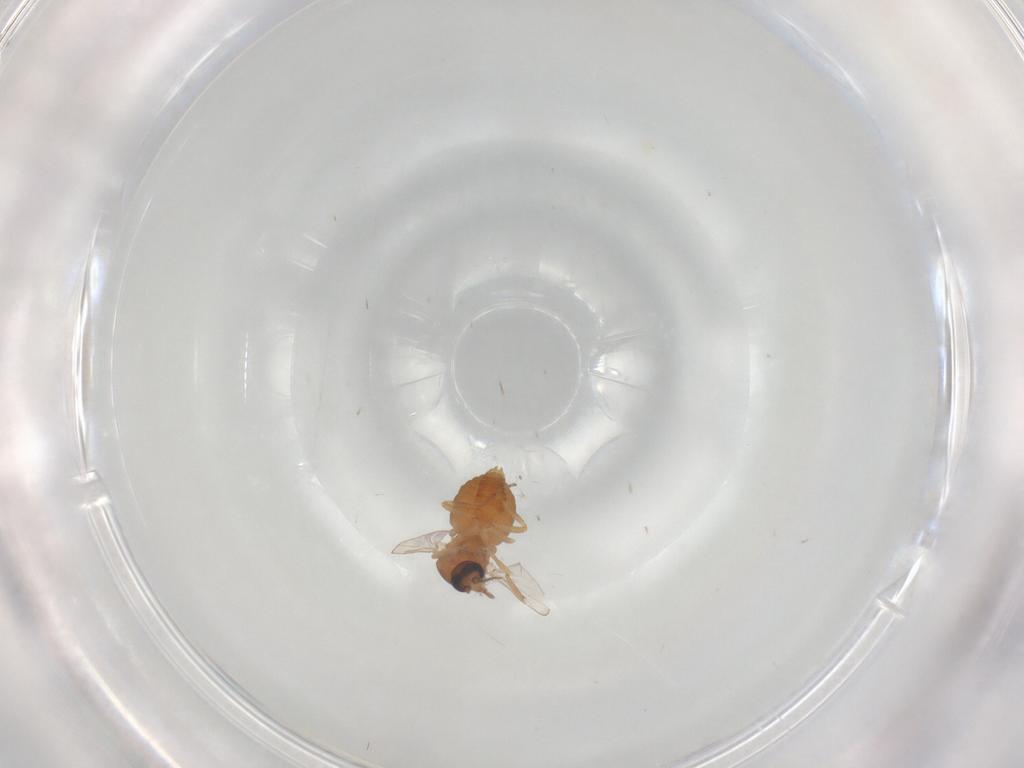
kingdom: Animalia
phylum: Arthropoda
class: Insecta
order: Diptera
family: Ceratopogonidae
